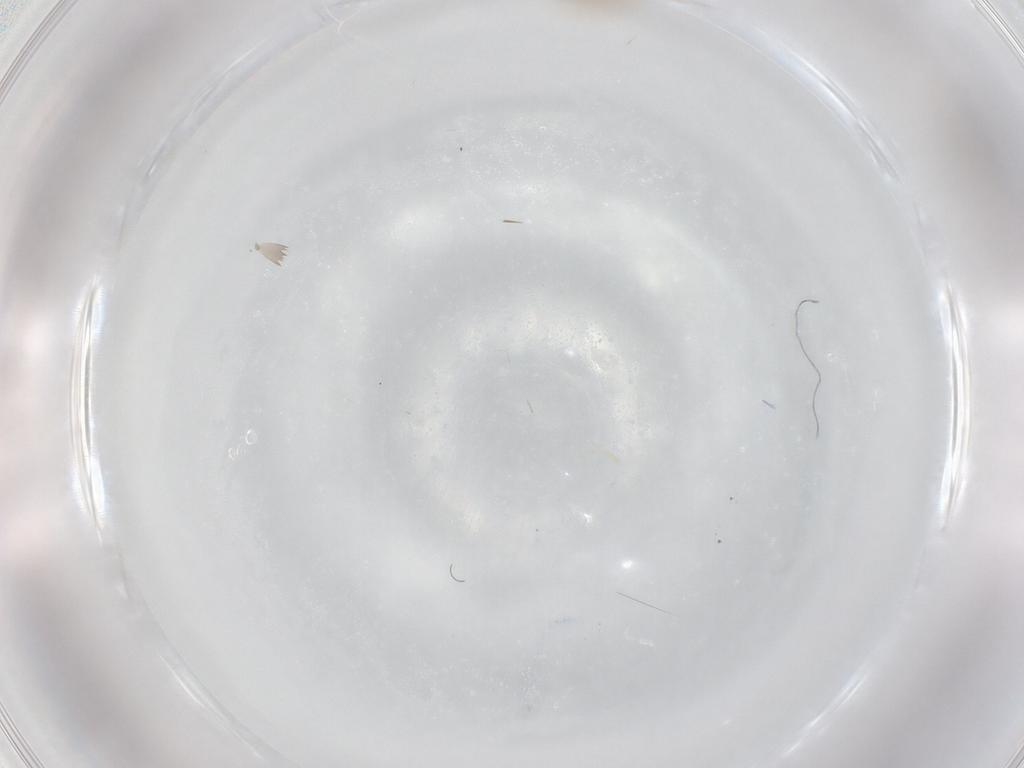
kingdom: Animalia
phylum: Arthropoda
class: Insecta
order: Diptera
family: Psychodidae
